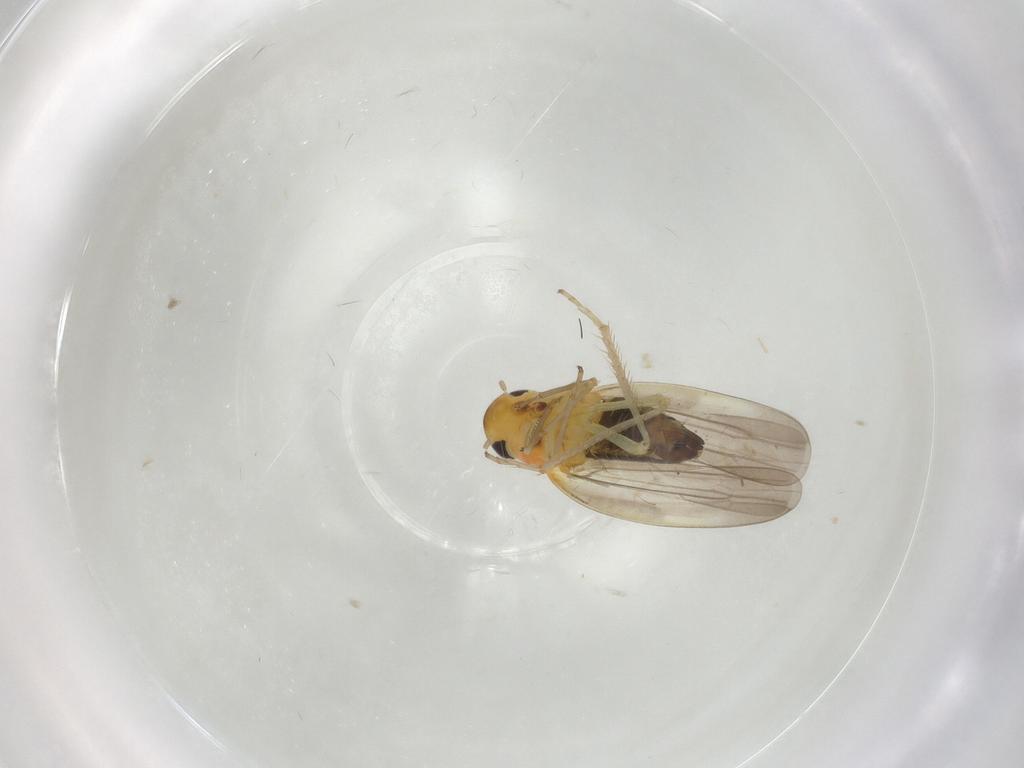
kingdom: Animalia
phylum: Arthropoda
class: Insecta
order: Hemiptera
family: Cicadellidae
